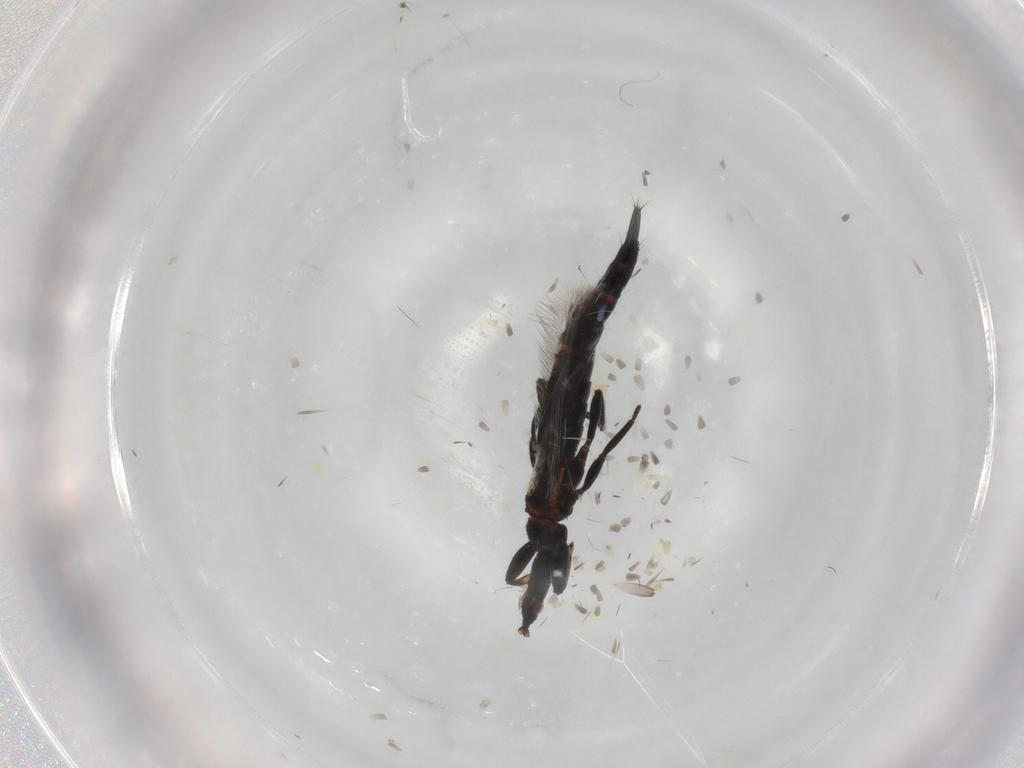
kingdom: Animalia
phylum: Arthropoda
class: Insecta
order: Thysanoptera
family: Phlaeothripidae
